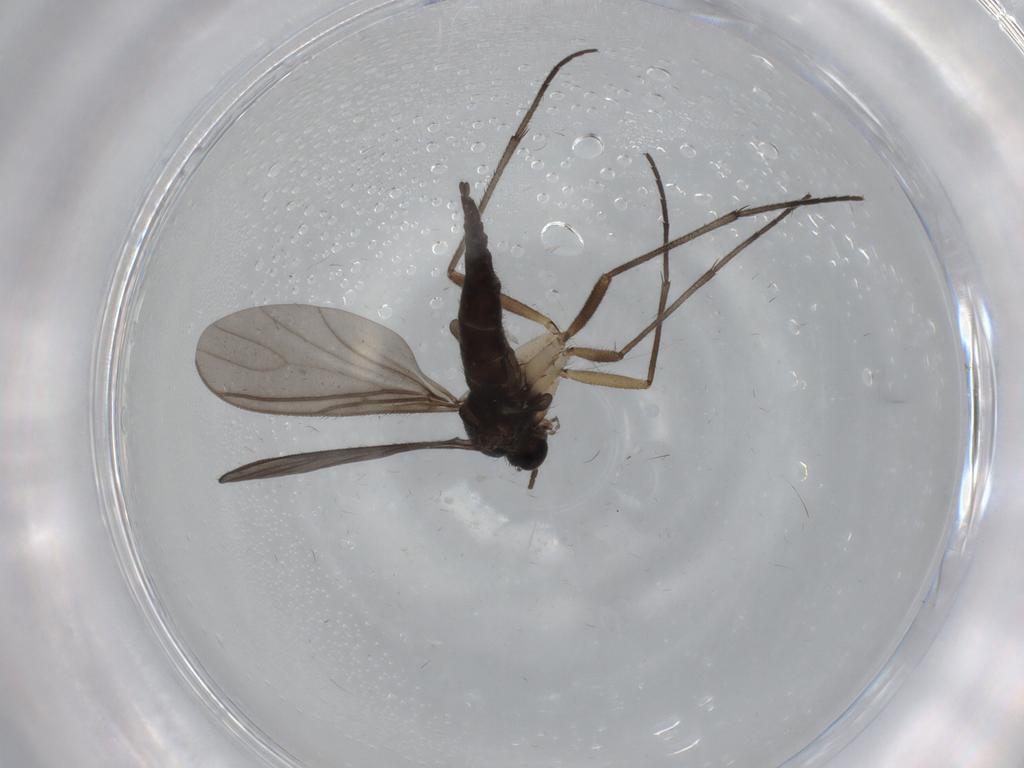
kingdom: Animalia
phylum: Arthropoda
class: Insecta
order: Diptera
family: Sciaridae
